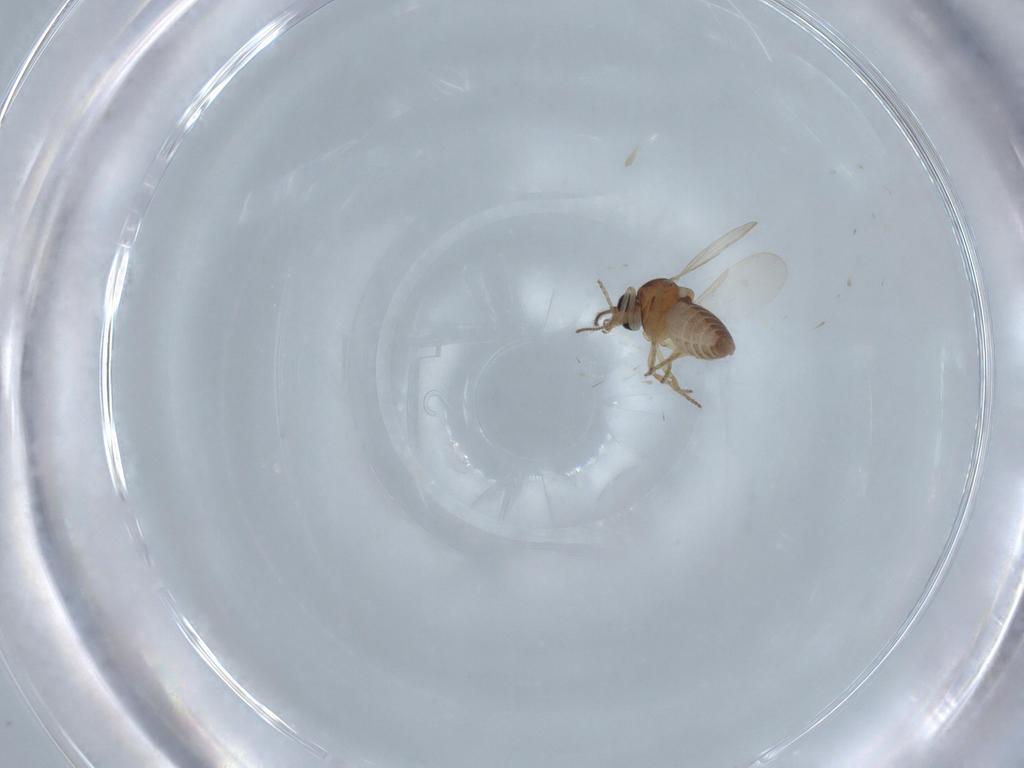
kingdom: Animalia
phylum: Arthropoda
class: Insecta
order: Diptera
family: Ceratopogonidae
